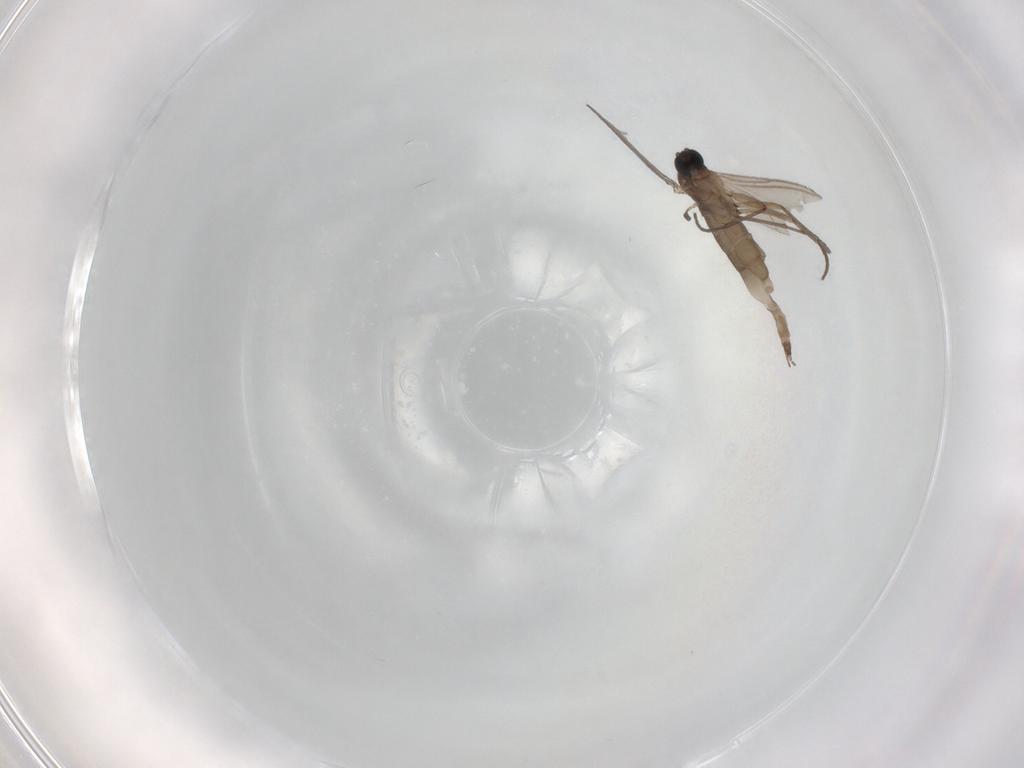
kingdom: Animalia
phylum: Arthropoda
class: Insecta
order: Diptera
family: Sciaridae
